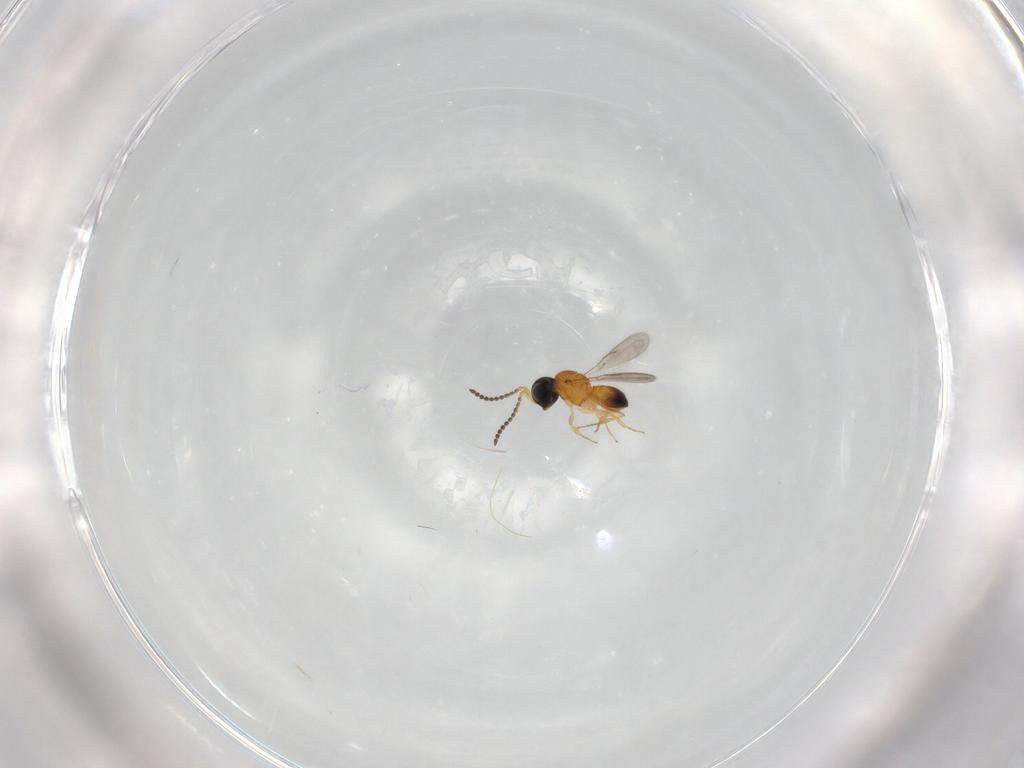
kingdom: Animalia
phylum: Arthropoda
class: Insecta
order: Hymenoptera
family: Scelionidae
